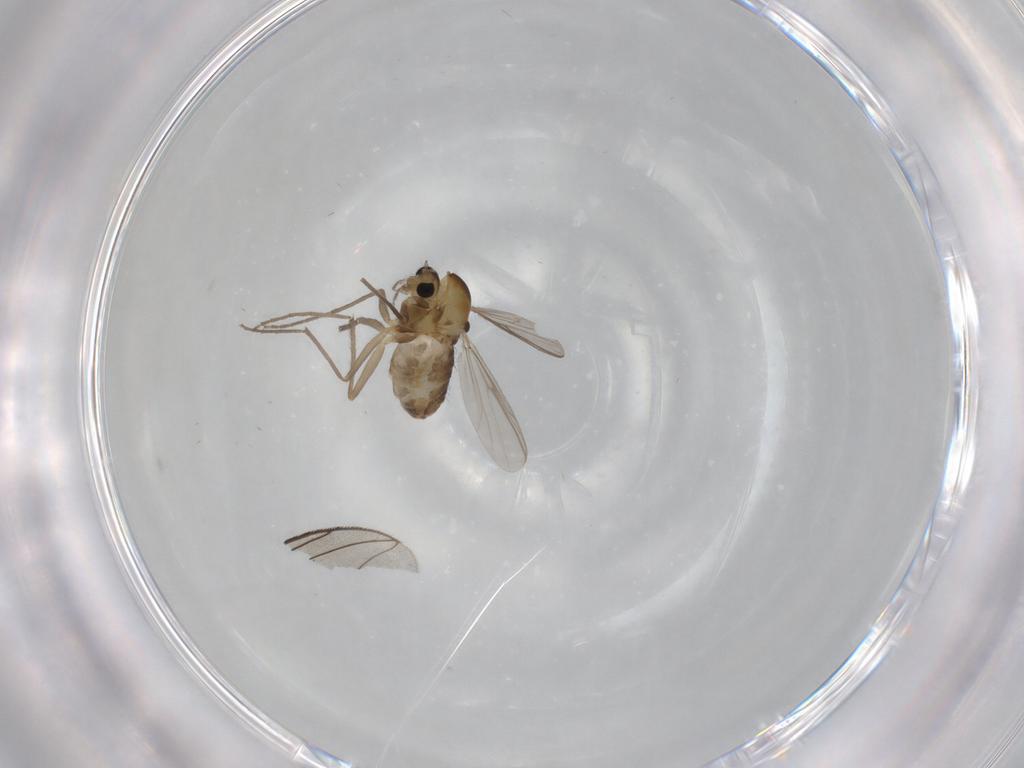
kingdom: Animalia
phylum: Arthropoda
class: Insecta
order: Diptera
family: Chironomidae
